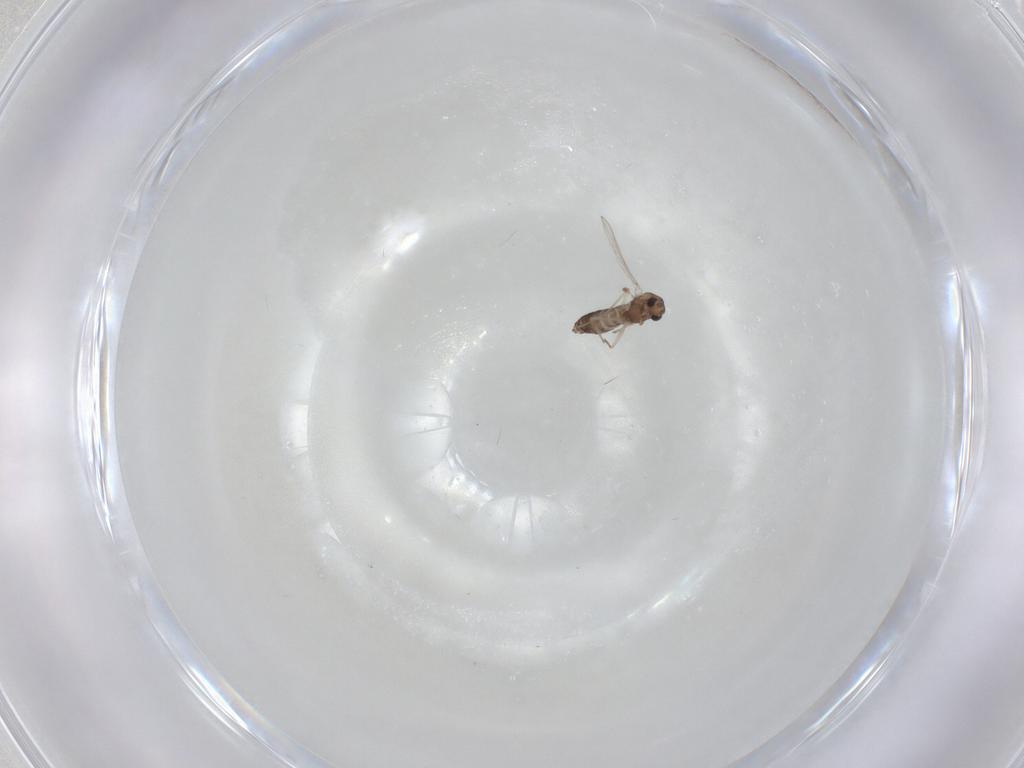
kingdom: Animalia
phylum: Arthropoda
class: Insecta
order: Diptera
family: Chironomidae
